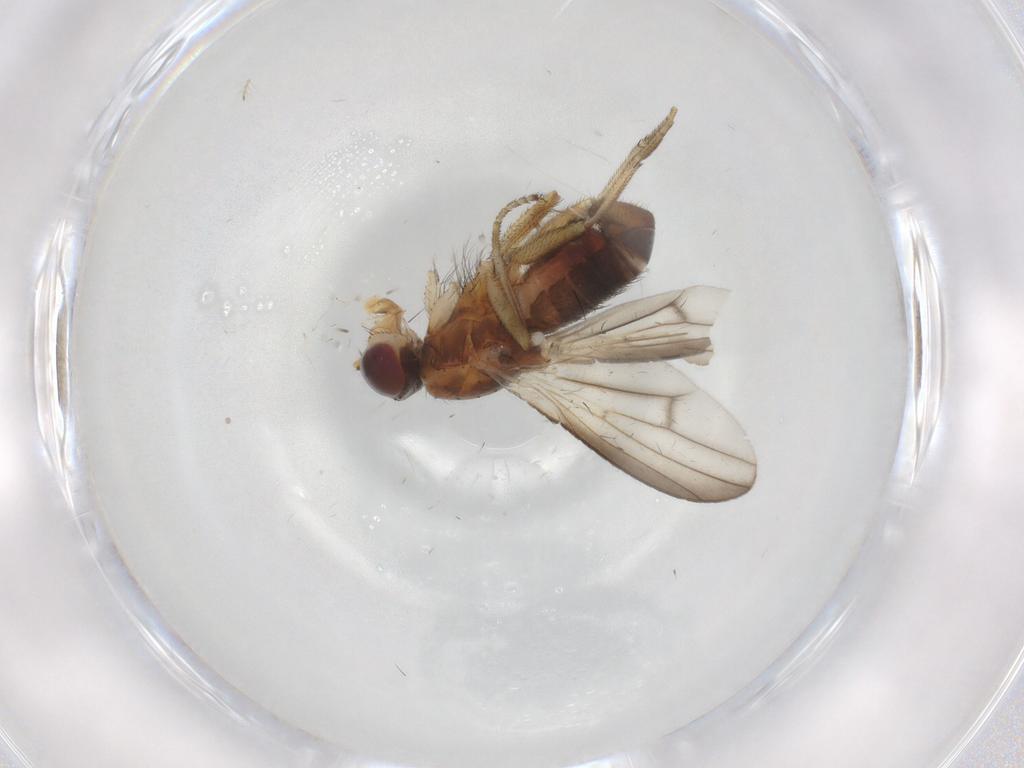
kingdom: Animalia
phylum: Arthropoda
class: Insecta
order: Diptera
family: Heleomyzidae
